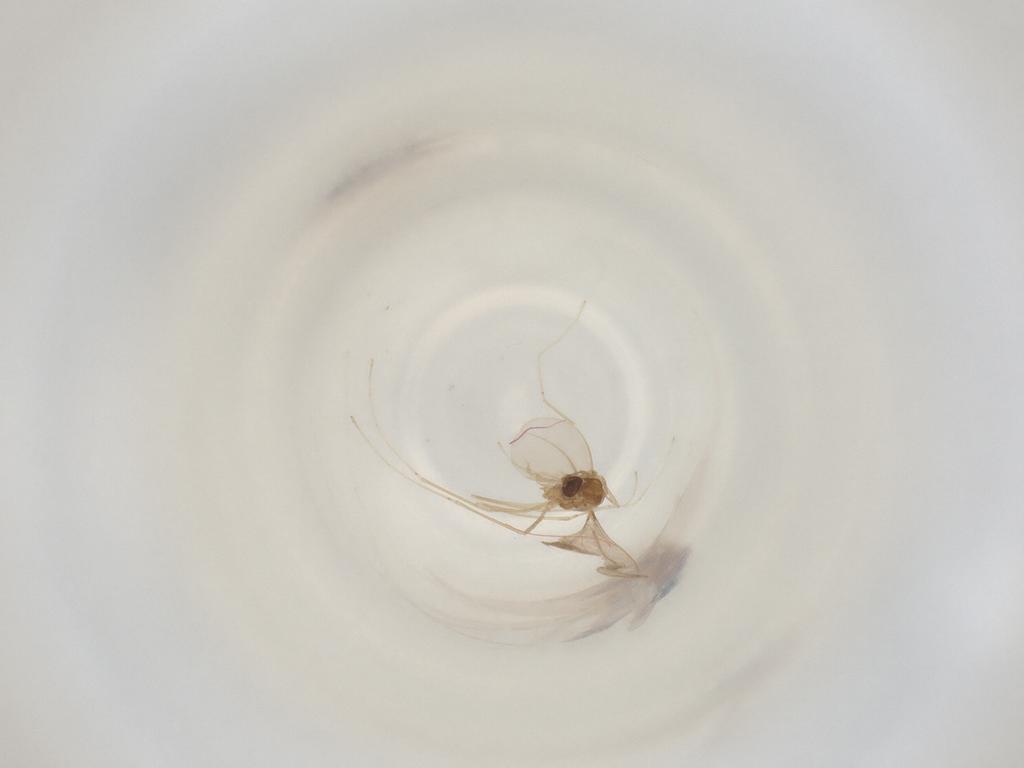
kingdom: Animalia
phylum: Arthropoda
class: Insecta
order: Diptera
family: Cecidomyiidae
